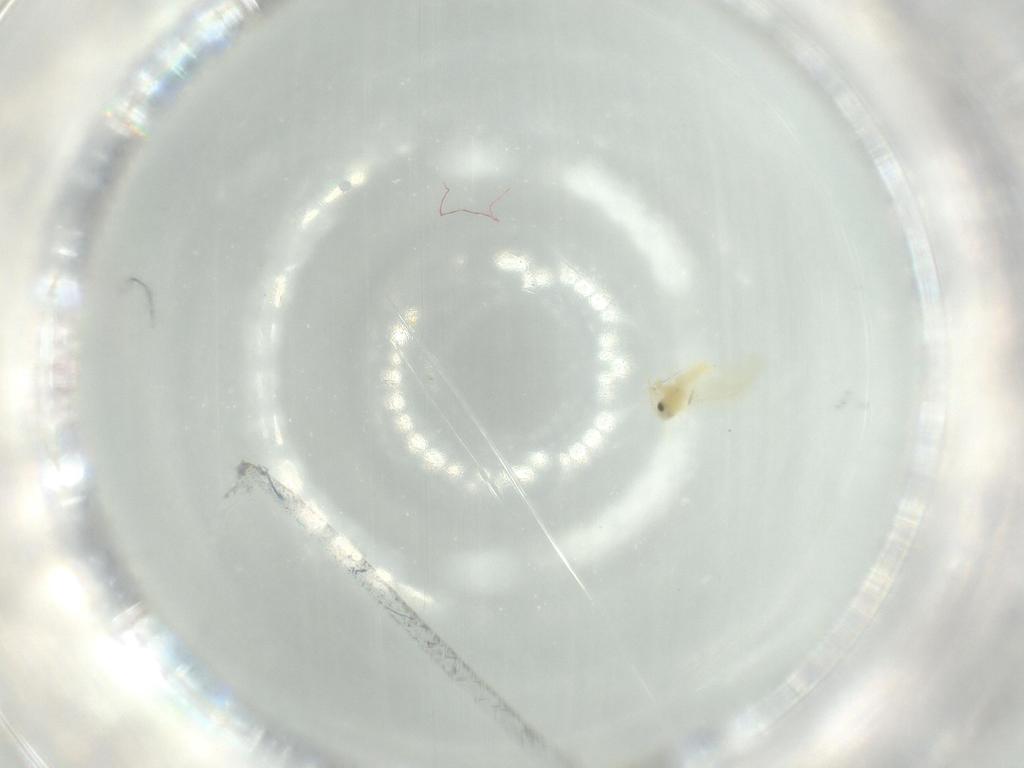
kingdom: Animalia
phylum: Arthropoda
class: Insecta
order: Hemiptera
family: Aleyrodidae
